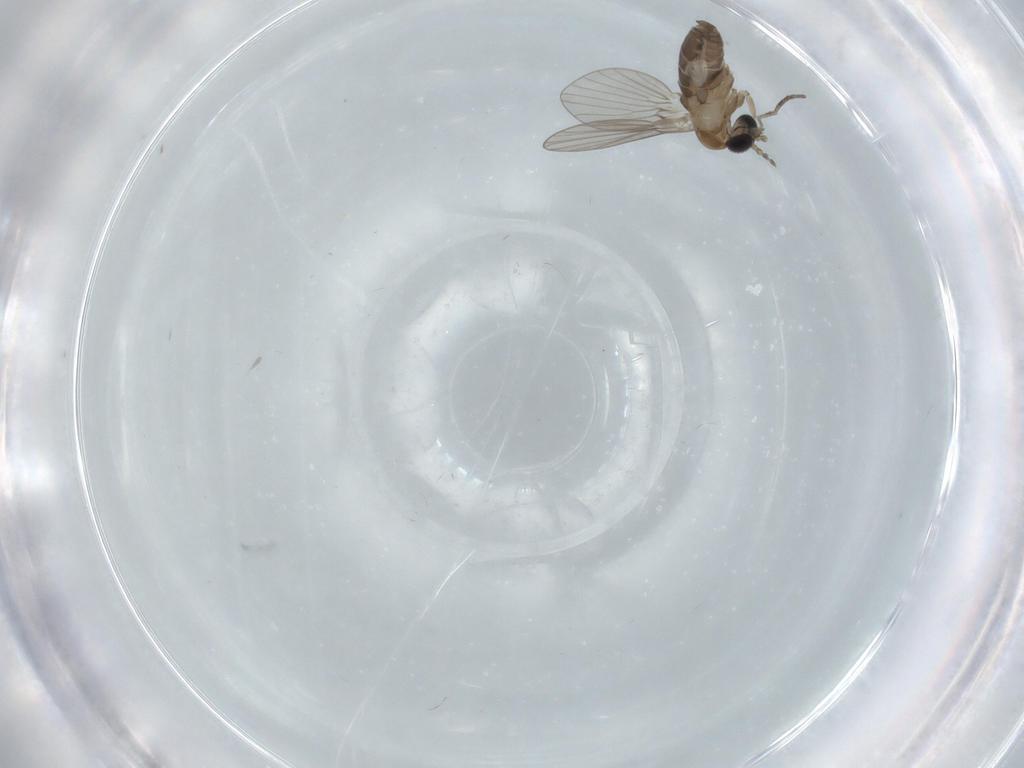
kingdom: Animalia
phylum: Arthropoda
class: Insecta
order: Diptera
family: Psychodidae
